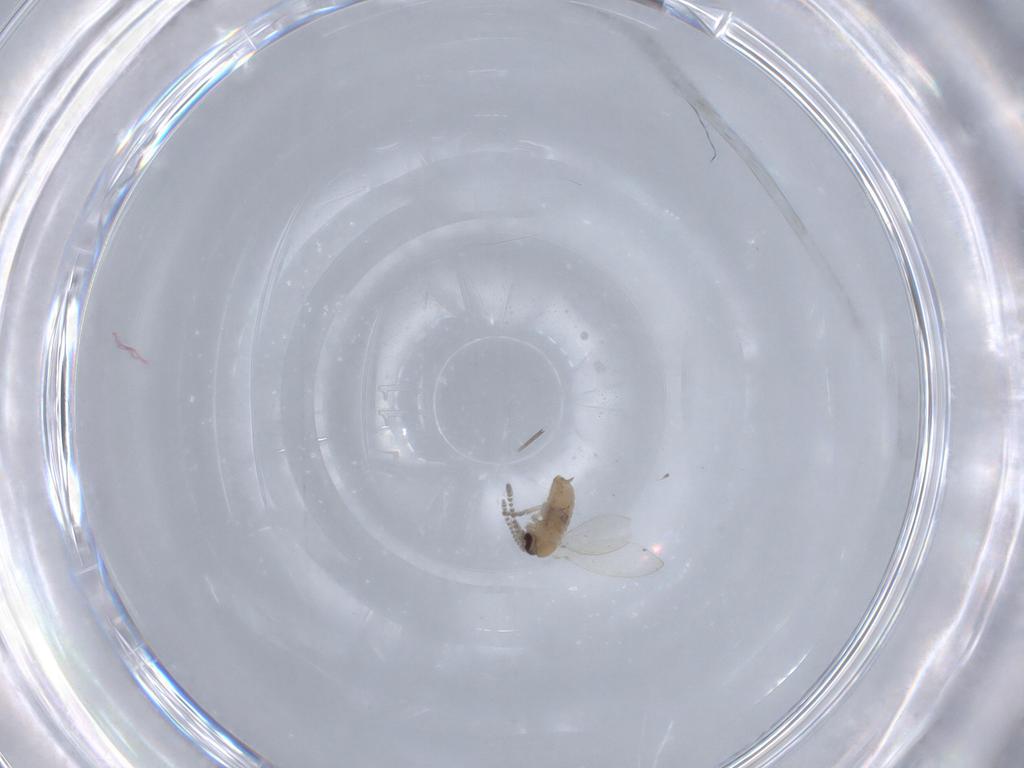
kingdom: Animalia
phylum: Arthropoda
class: Insecta
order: Diptera
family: Psychodidae
